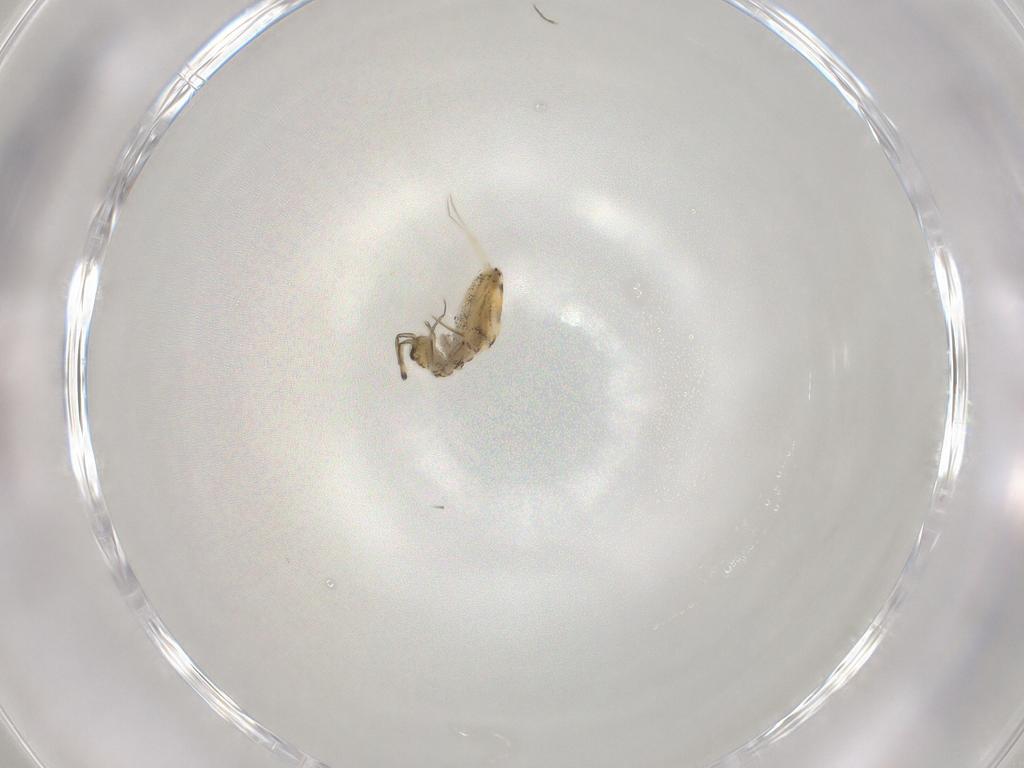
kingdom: Animalia
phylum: Arthropoda
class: Collembola
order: Entomobryomorpha
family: Paronellidae
